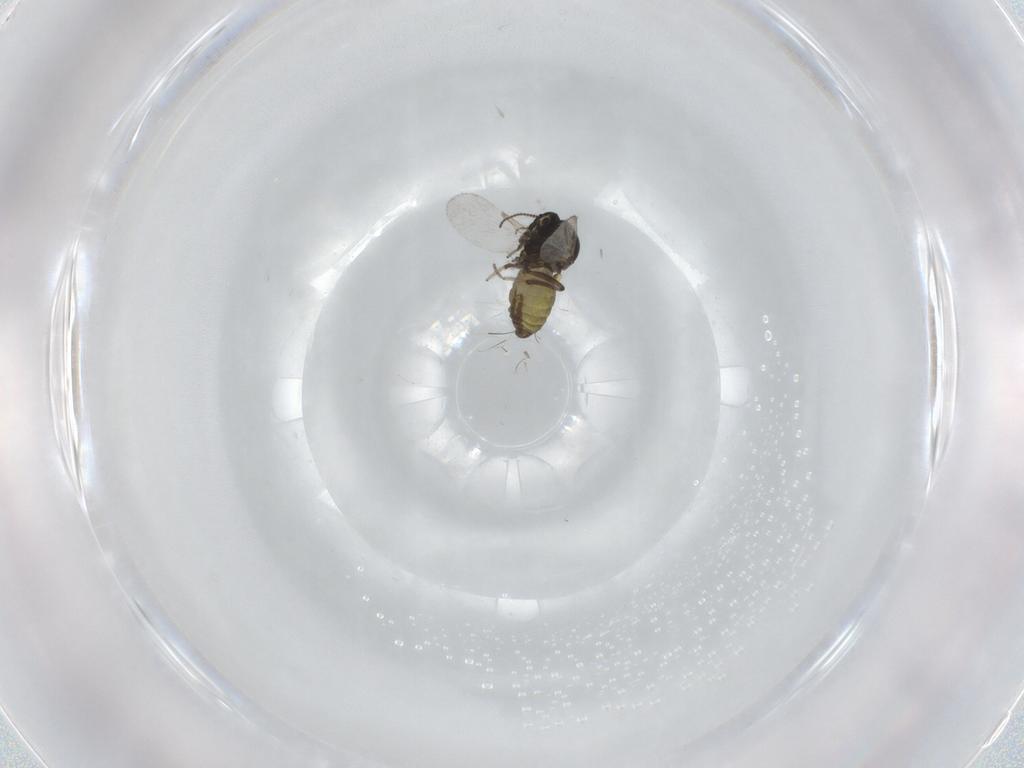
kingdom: Animalia
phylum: Arthropoda
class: Insecta
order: Diptera
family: Ceratopogonidae
